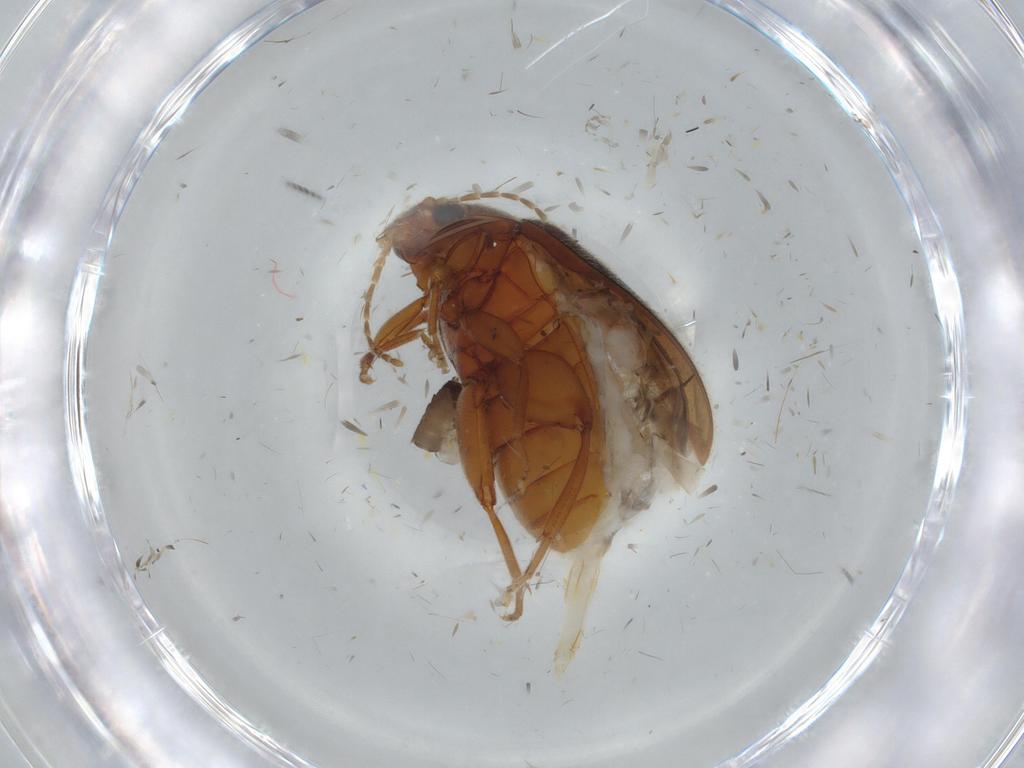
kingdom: Animalia
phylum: Arthropoda
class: Insecta
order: Coleoptera
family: Scirtidae
